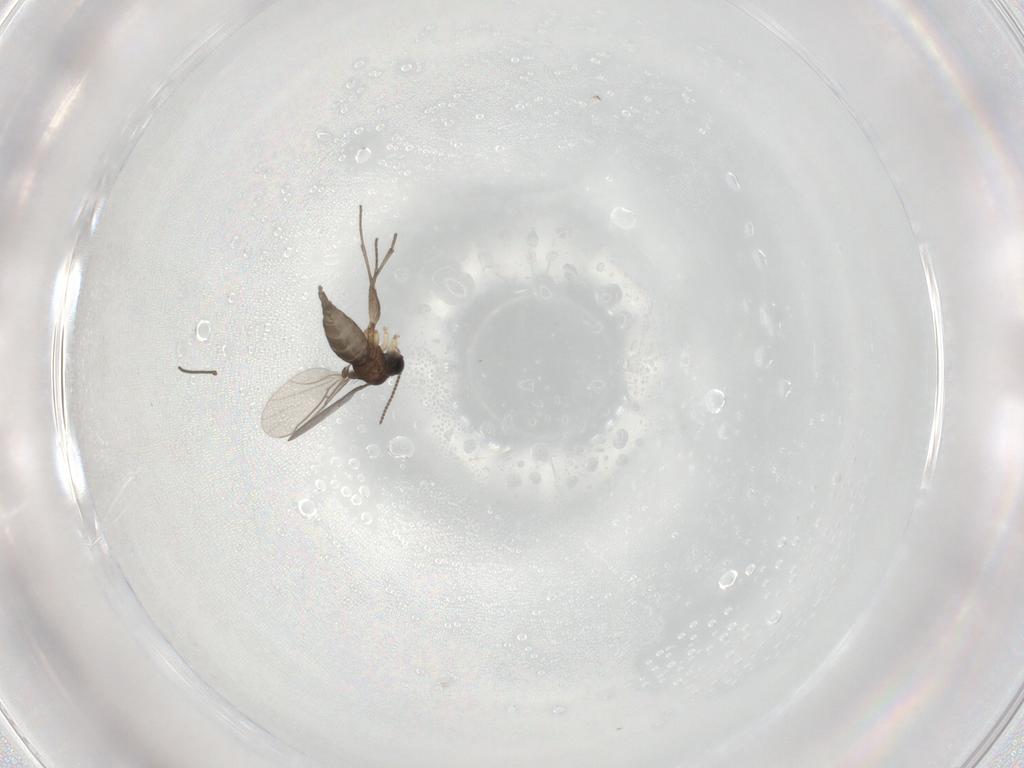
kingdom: Animalia
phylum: Arthropoda
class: Insecta
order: Diptera
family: Sciaridae
